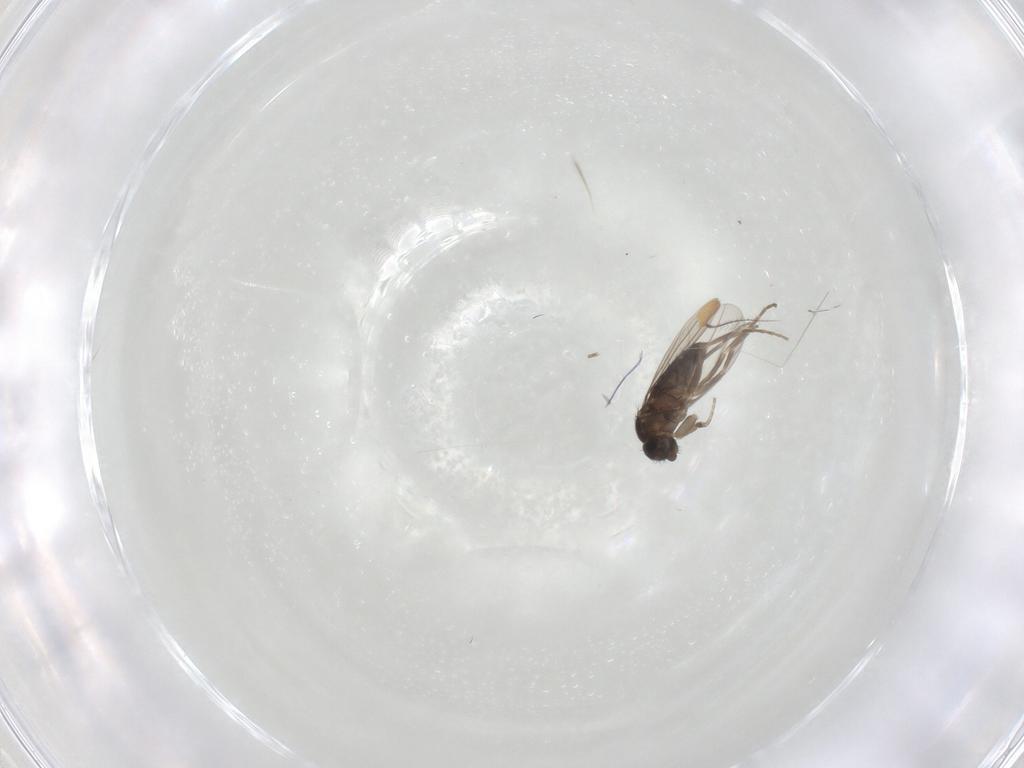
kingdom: Animalia
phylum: Arthropoda
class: Insecta
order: Diptera
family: Phoridae
